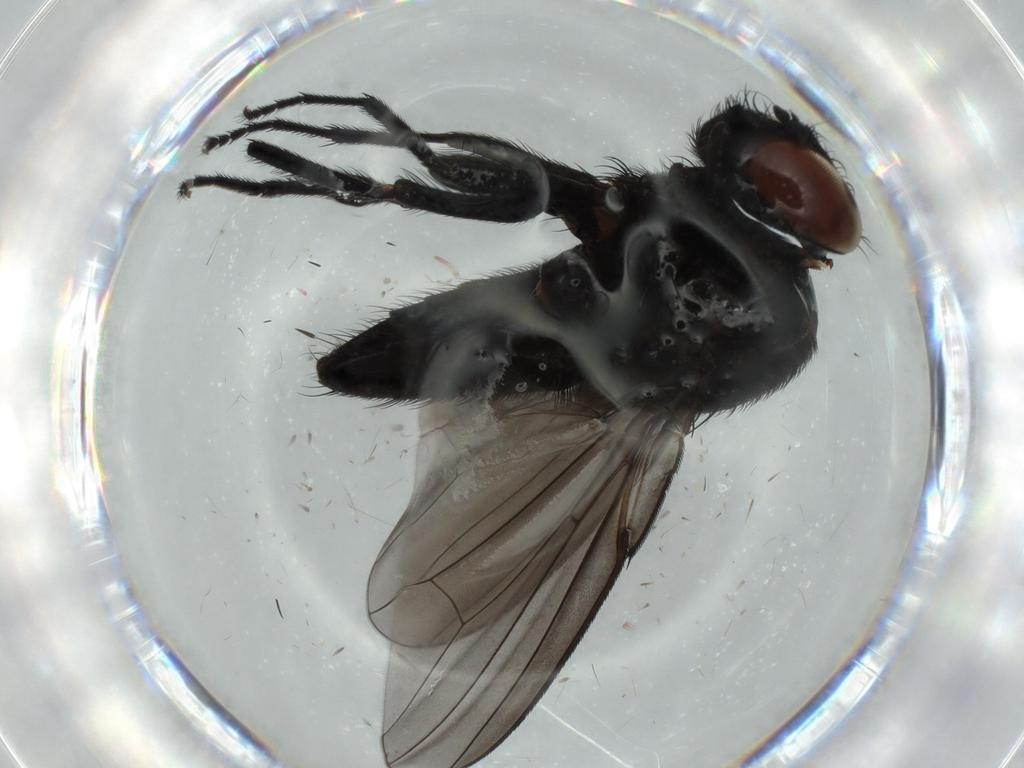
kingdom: Animalia
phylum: Arthropoda
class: Insecta
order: Diptera
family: Milichiidae
